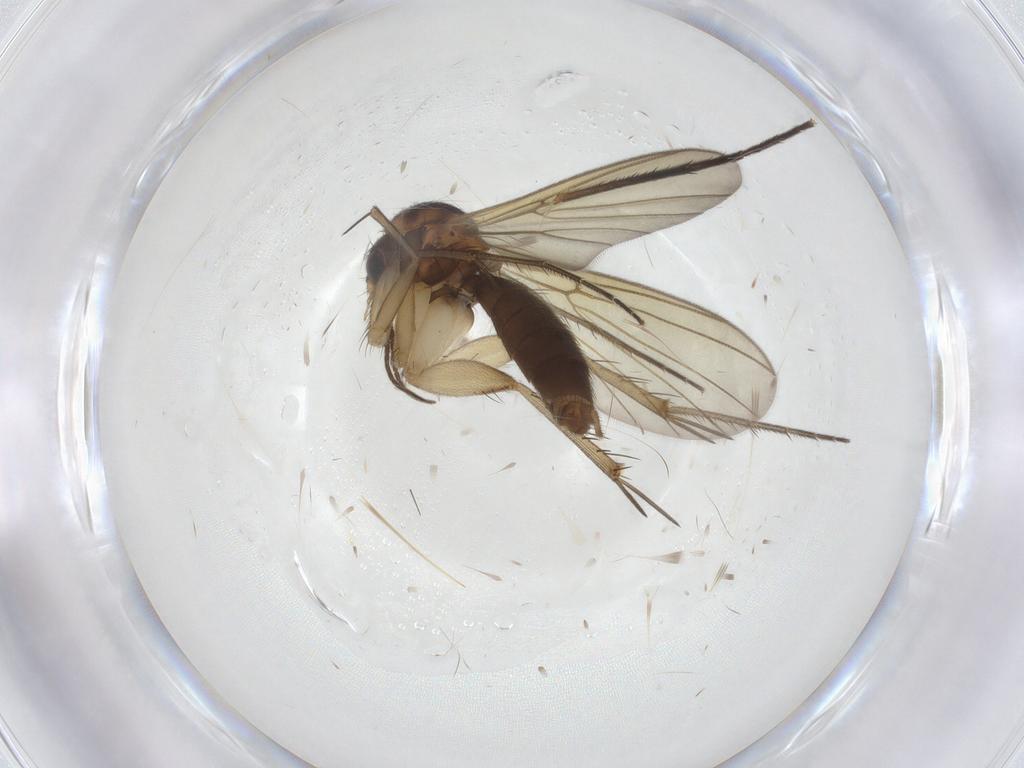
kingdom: Animalia
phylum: Arthropoda
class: Insecta
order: Diptera
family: Mycetophilidae
